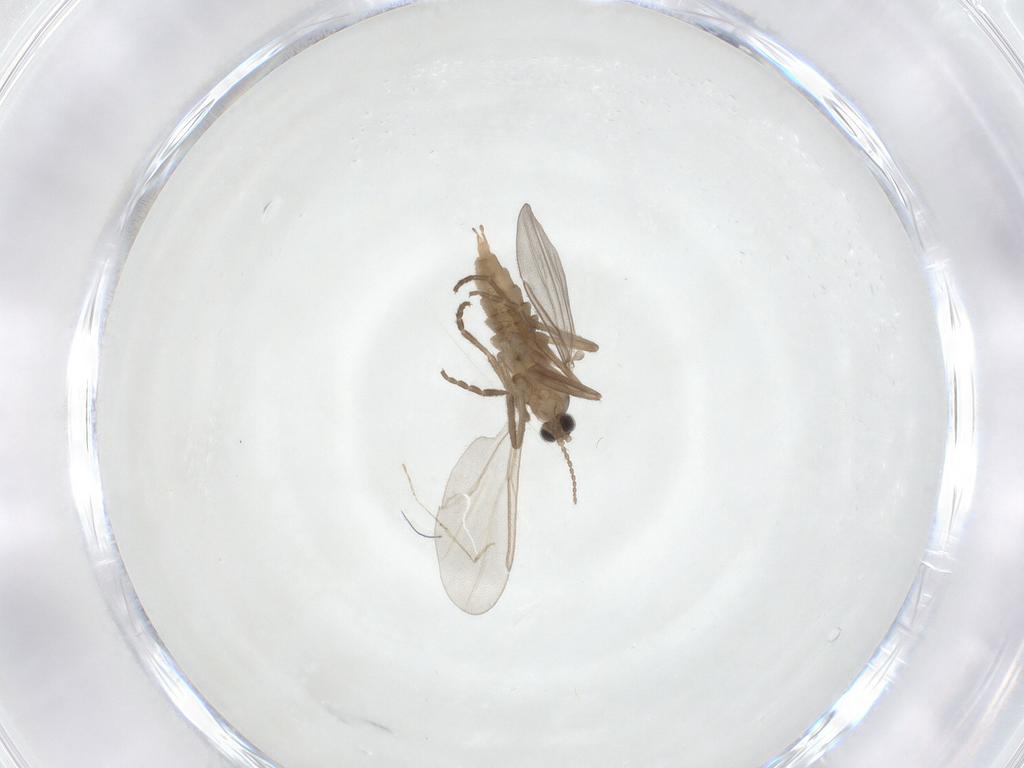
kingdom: Animalia
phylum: Arthropoda
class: Insecta
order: Diptera
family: Cecidomyiidae
